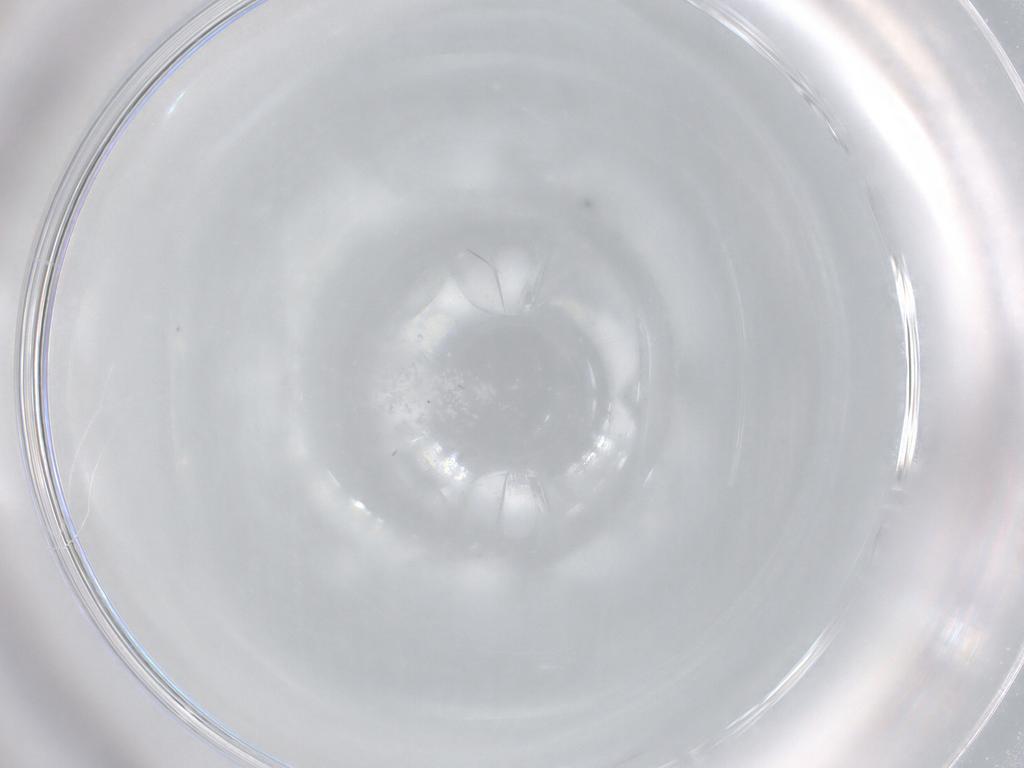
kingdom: Animalia
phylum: Arthropoda
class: Insecta
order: Diptera
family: Cecidomyiidae
